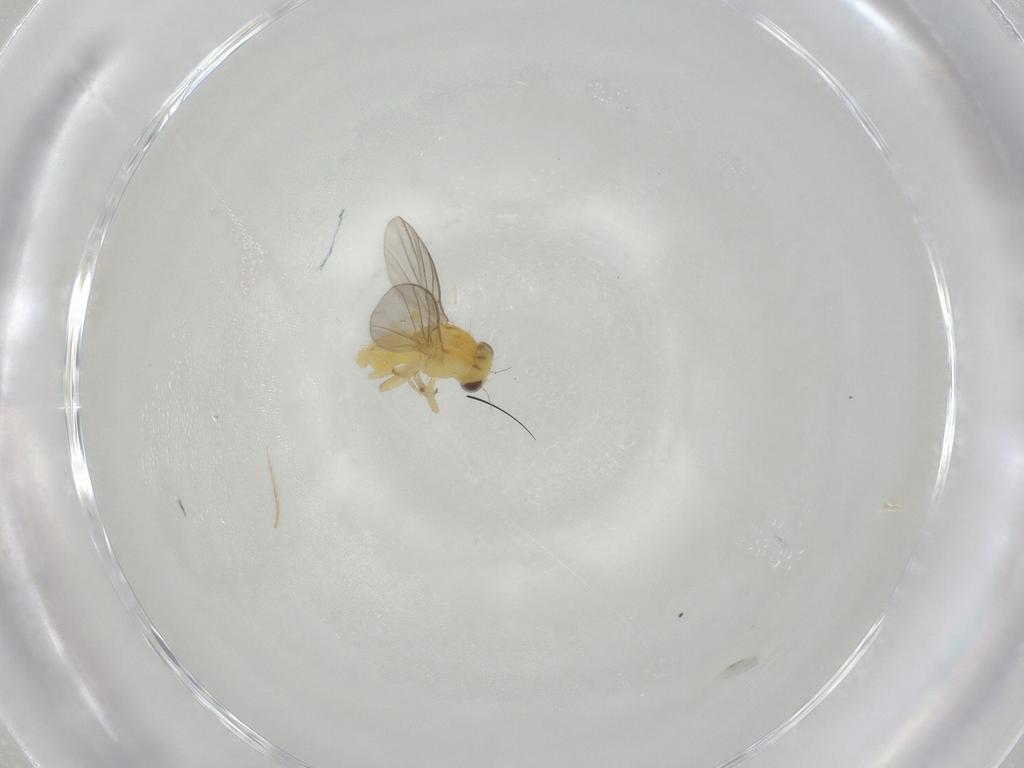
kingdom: Animalia
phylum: Arthropoda
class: Insecta
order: Diptera
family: Agromyzidae
